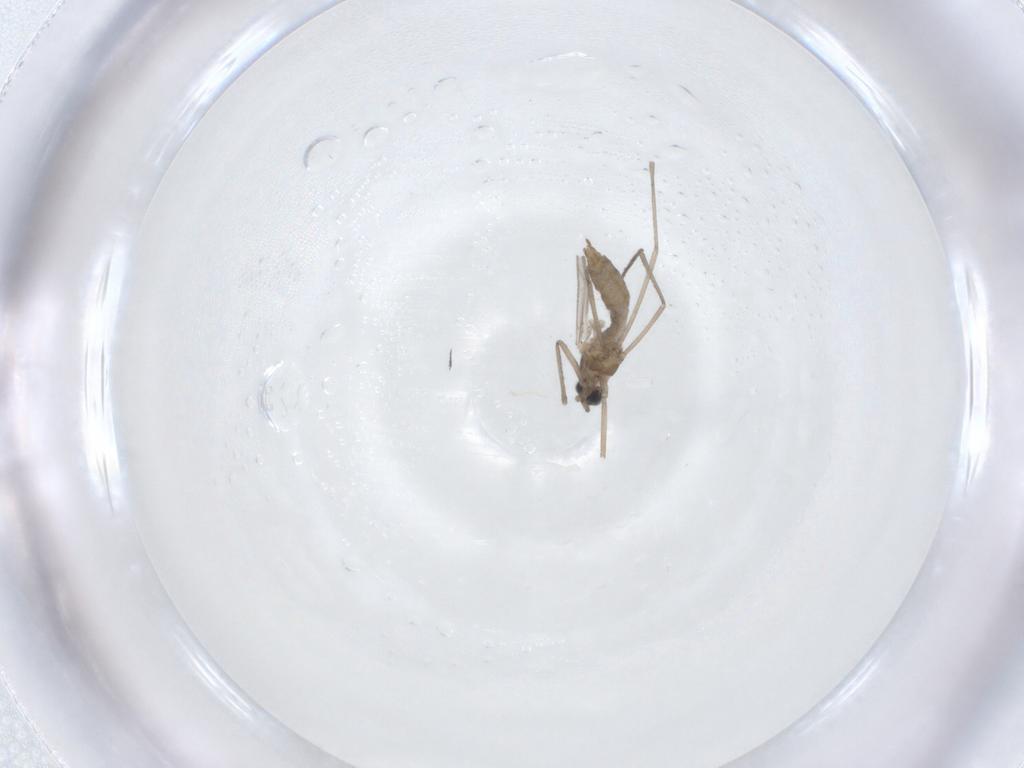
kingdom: Animalia
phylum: Arthropoda
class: Insecta
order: Diptera
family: Cecidomyiidae
